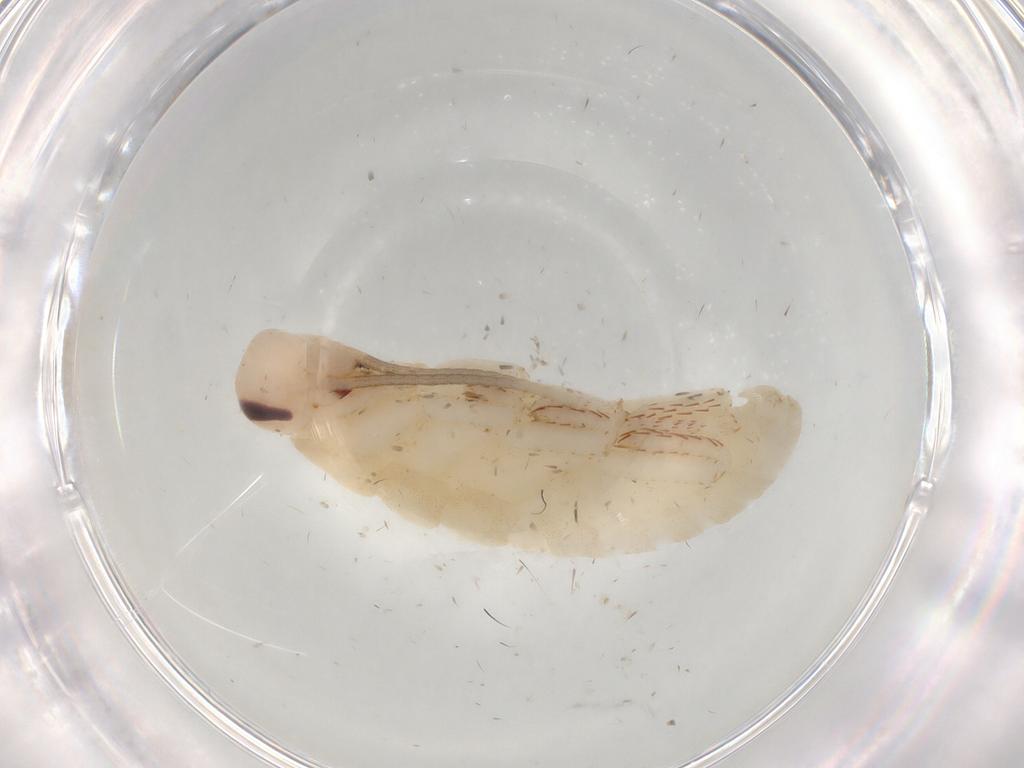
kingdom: Animalia
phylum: Arthropoda
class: Insecta
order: Blattodea
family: Blaberidae
